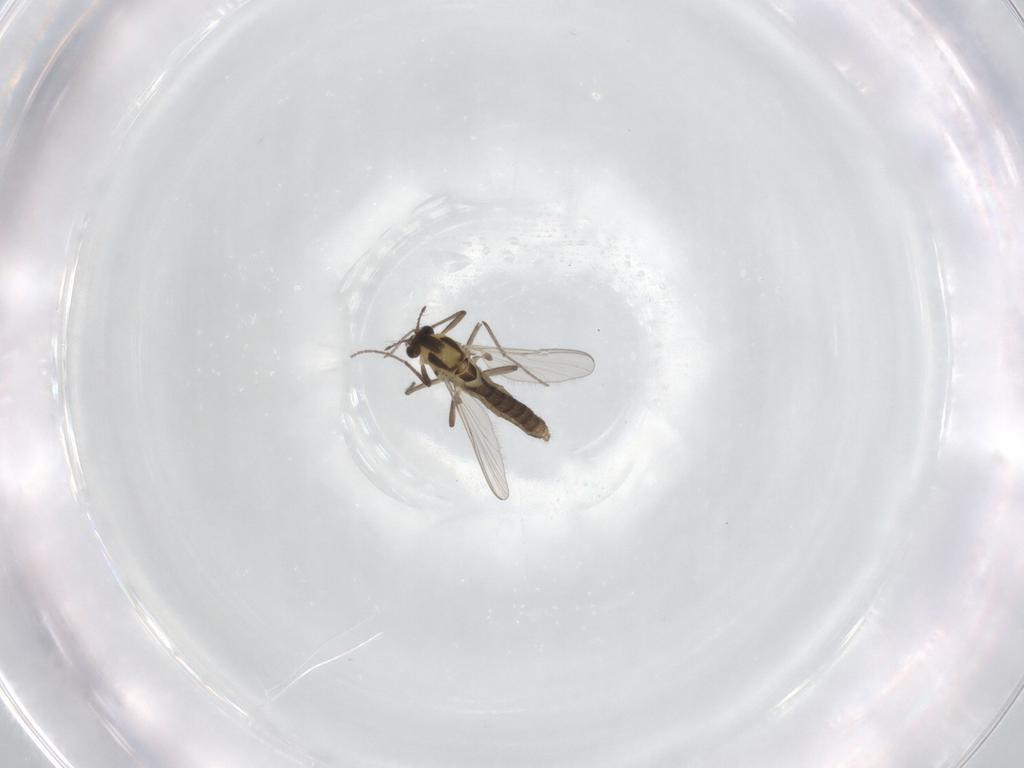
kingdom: Animalia
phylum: Arthropoda
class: Insecta
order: Diptera
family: Chironomidae
